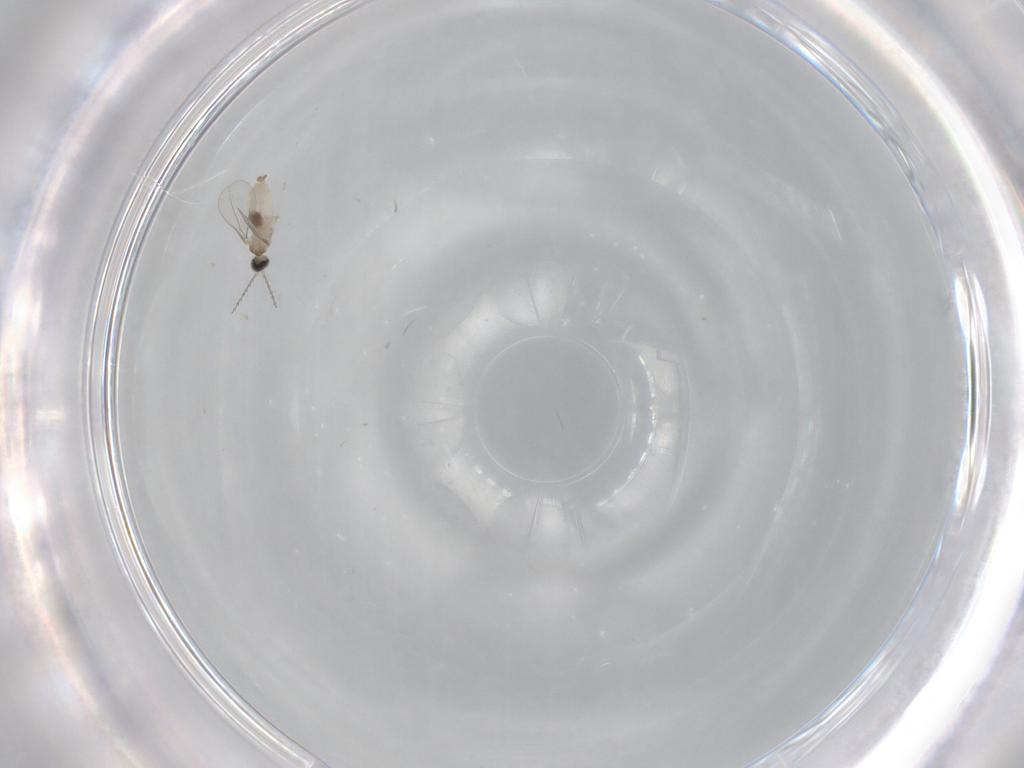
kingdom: Animalia
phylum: Arthropoda
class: Insecta
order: Diptera
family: Cecidomyiidae
